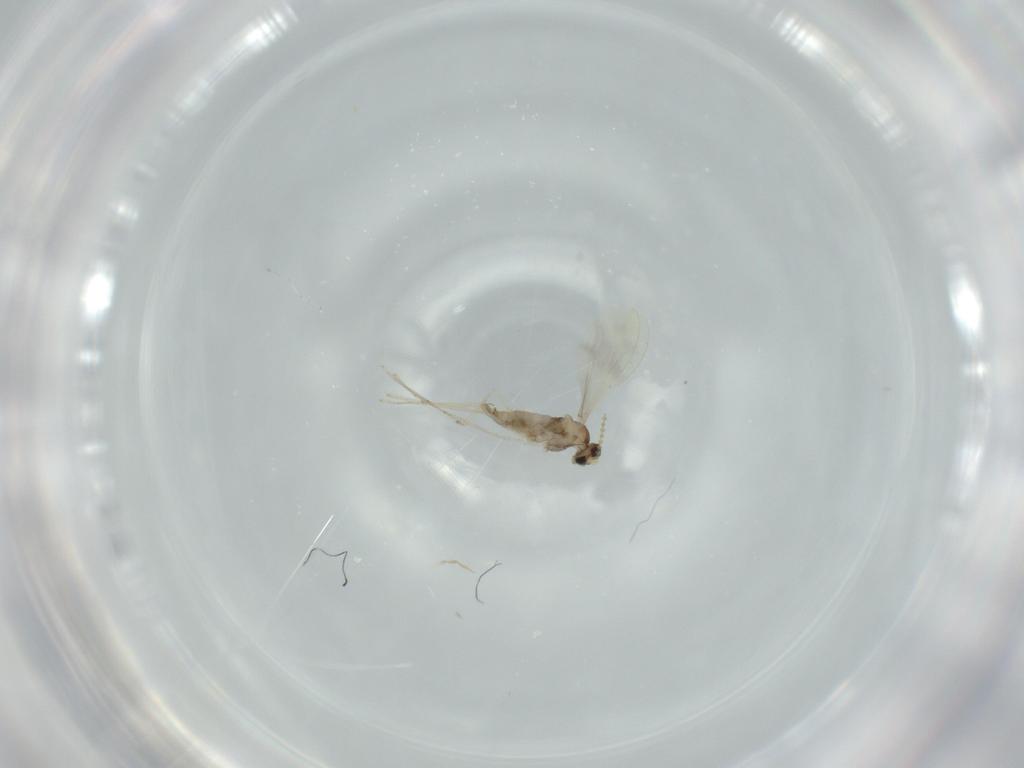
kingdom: Animalia
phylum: Arthropoda
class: Insecta
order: Diptera
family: Cecidomyiidae
